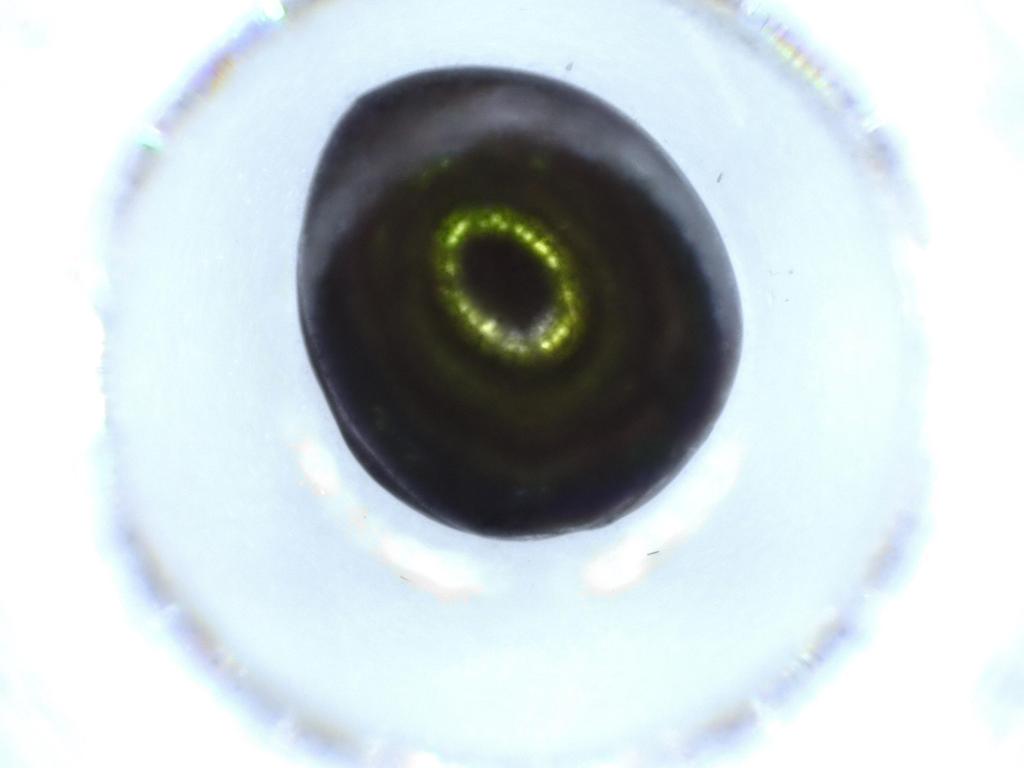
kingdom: Animalia
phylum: Arthropoda
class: Insecta
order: Coleoptera
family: Hybosoridae
